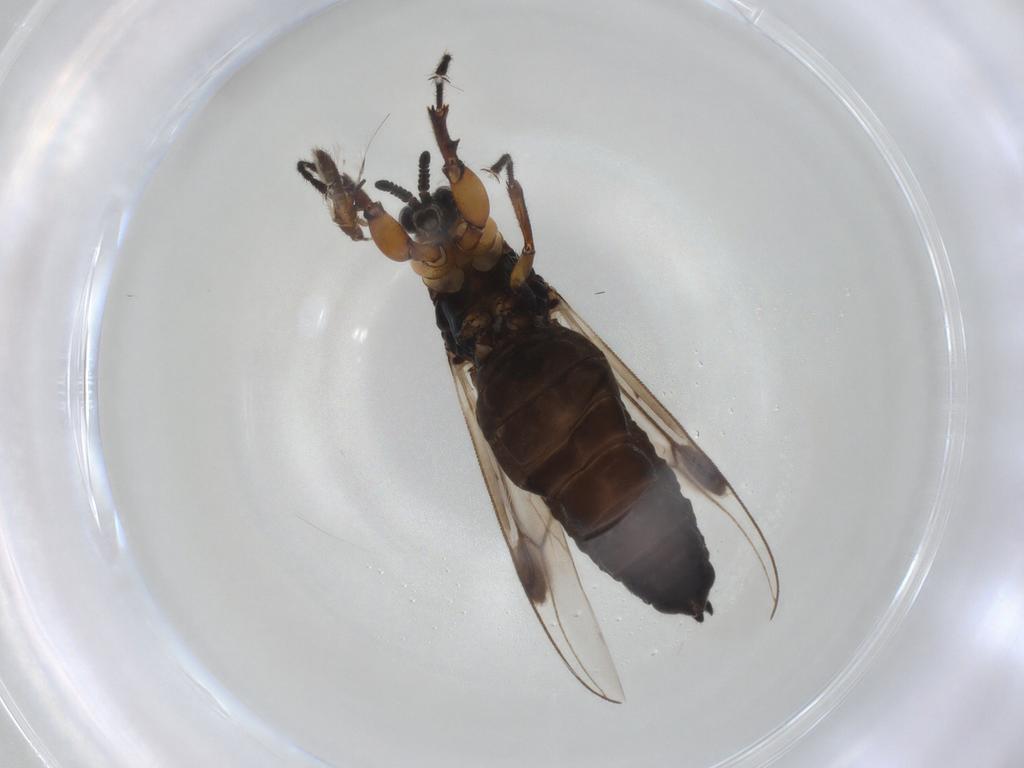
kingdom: Animalia
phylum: Arthropoda
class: Insecta
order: Diptera
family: Bibionidae
